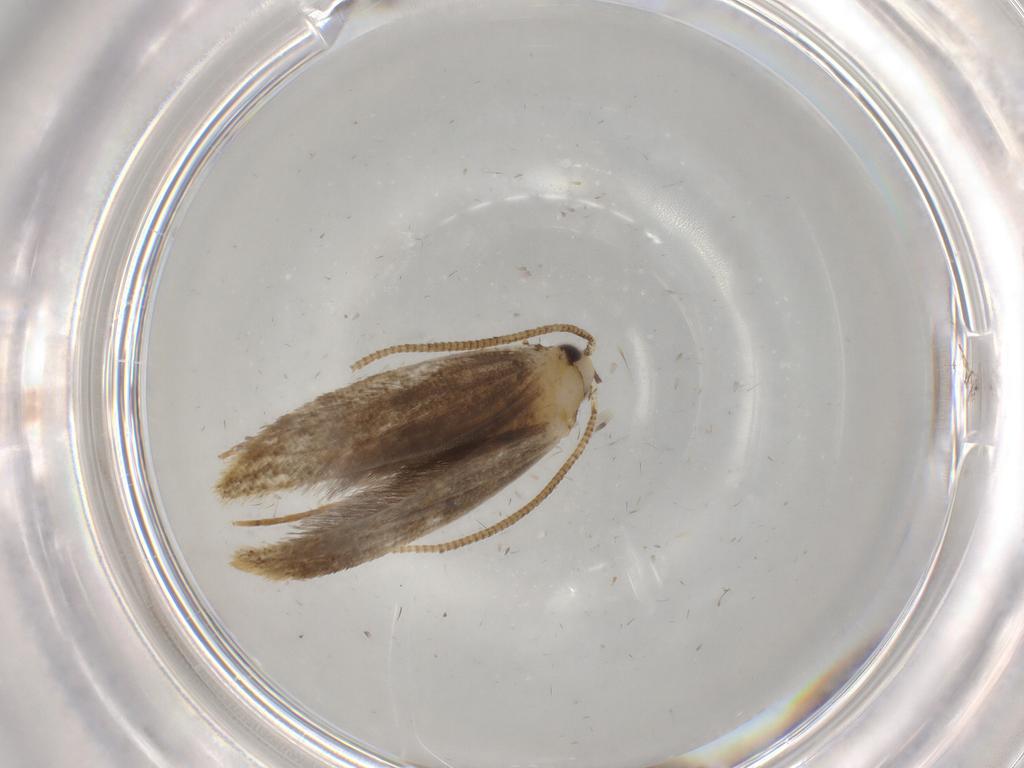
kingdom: Animalia
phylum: Arthropoda
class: Insecta
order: Lepidoptera
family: Tineidae
